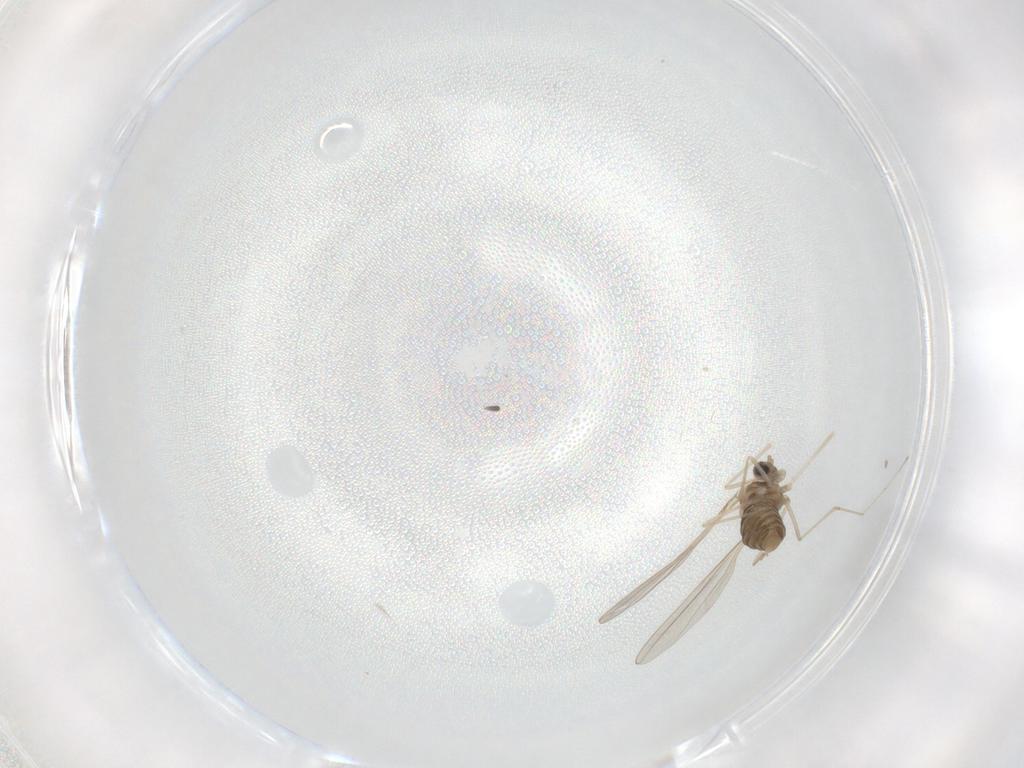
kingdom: Animalia
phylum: Arthropoda
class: Insecta
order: Diptera
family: Cecidomyiidae
